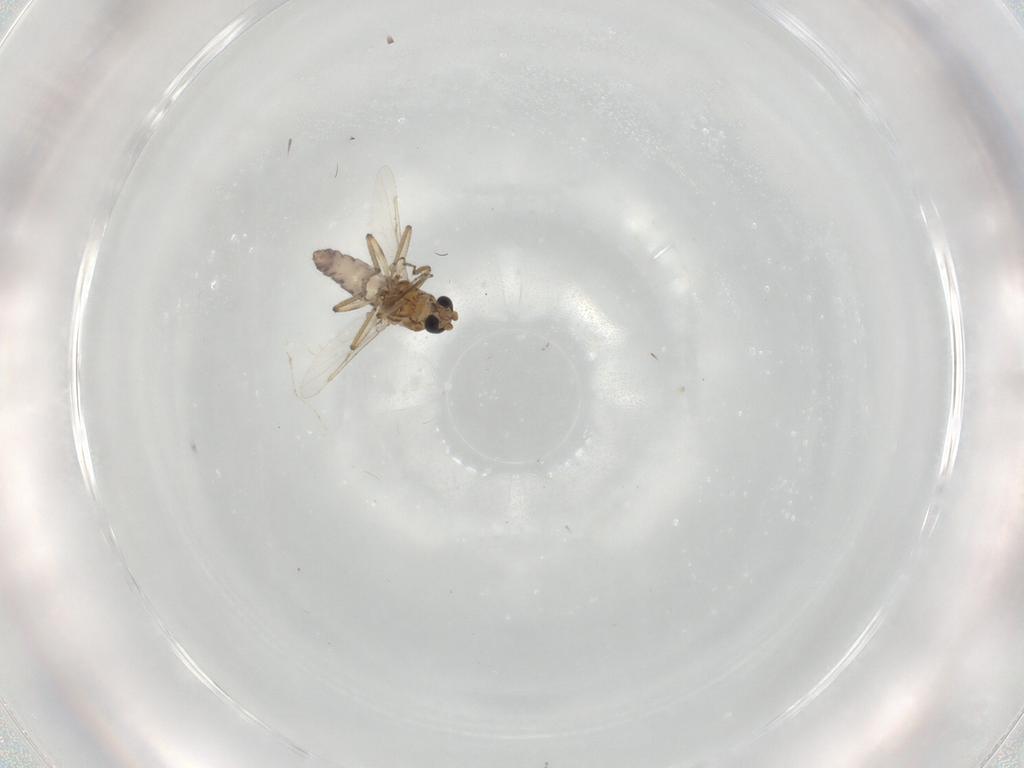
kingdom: Animalia
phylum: Arthropoda
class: Insecta
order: Diptera
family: Ceratopogonidae
